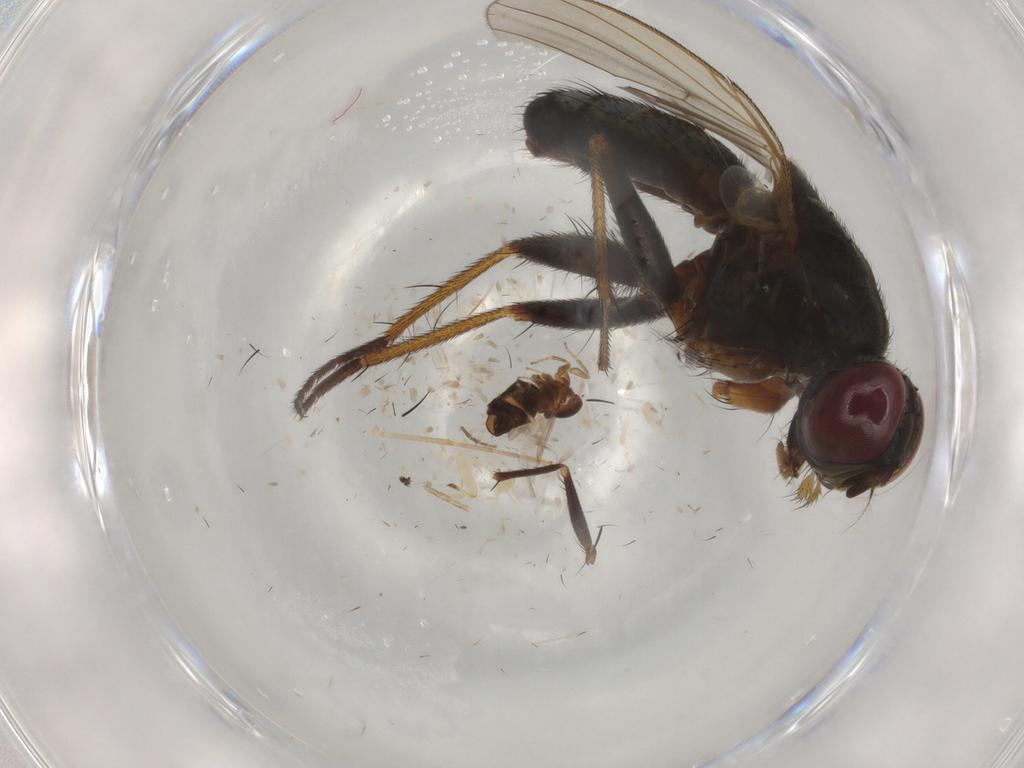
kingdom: Animalia
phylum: Arthropoda
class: Insecta
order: Diptera
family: Muscidae
